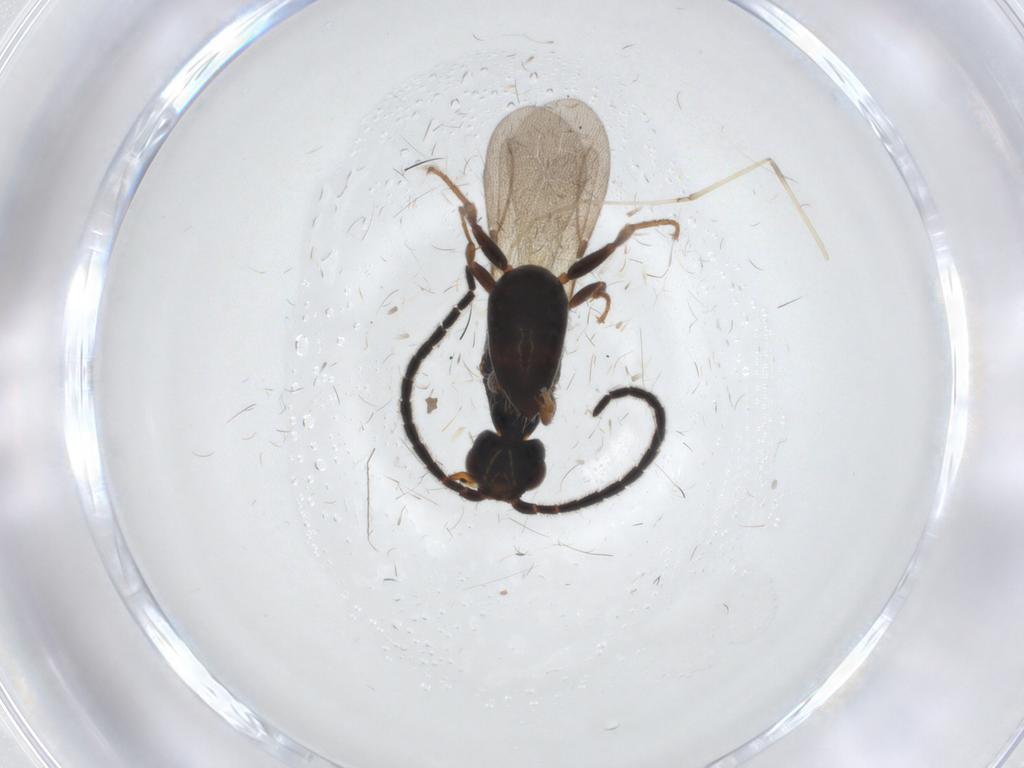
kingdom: Animalia
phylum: Arthropoda
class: Insecta
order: Hymenoptera
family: Bethylidae
